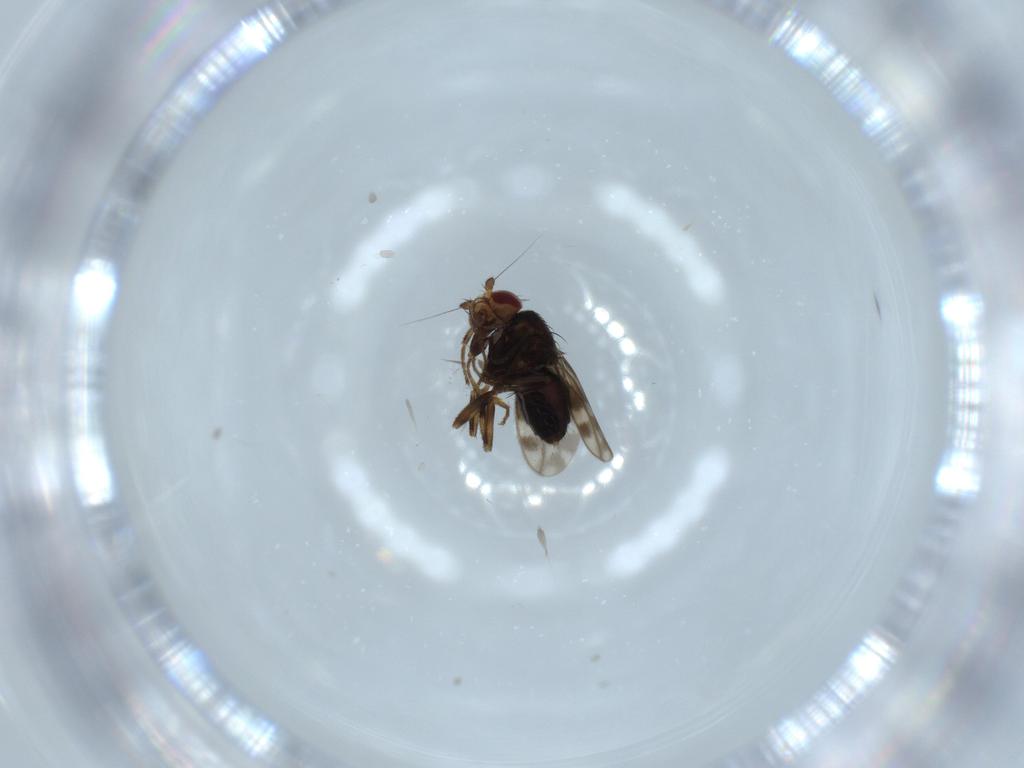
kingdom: Animalia
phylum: Arthropoda
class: Insecta
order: Diptera
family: Sphaeroceridae
